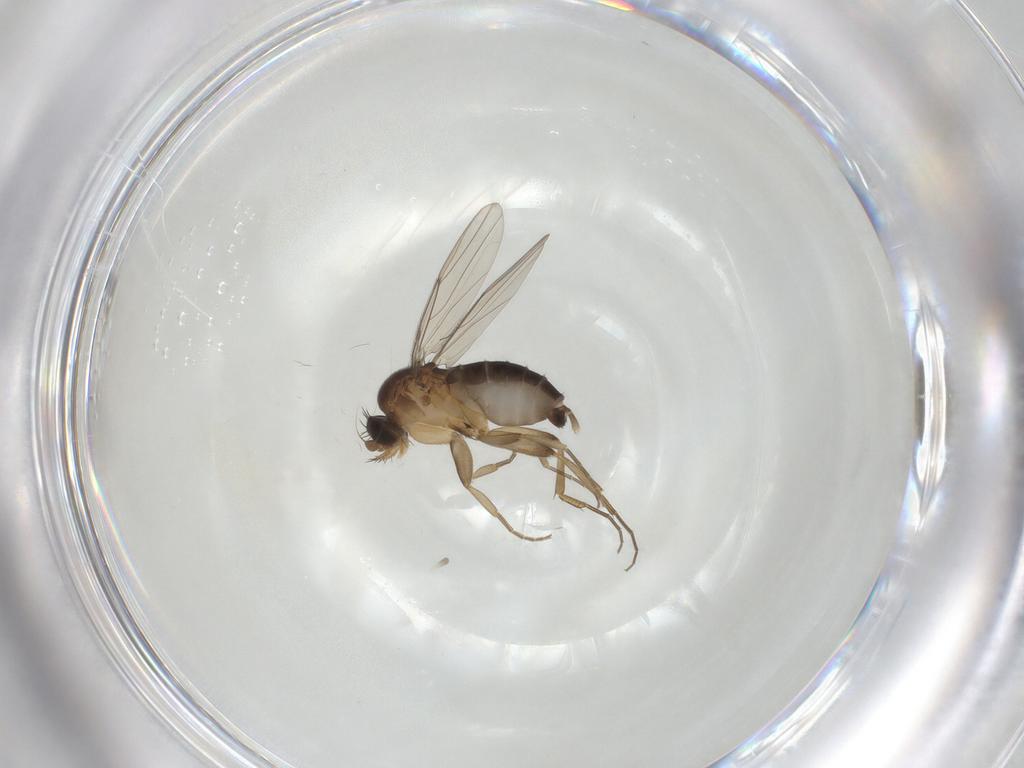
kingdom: Animalia
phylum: Arthropoda
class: Insecta
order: Diptera
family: Phoridae
